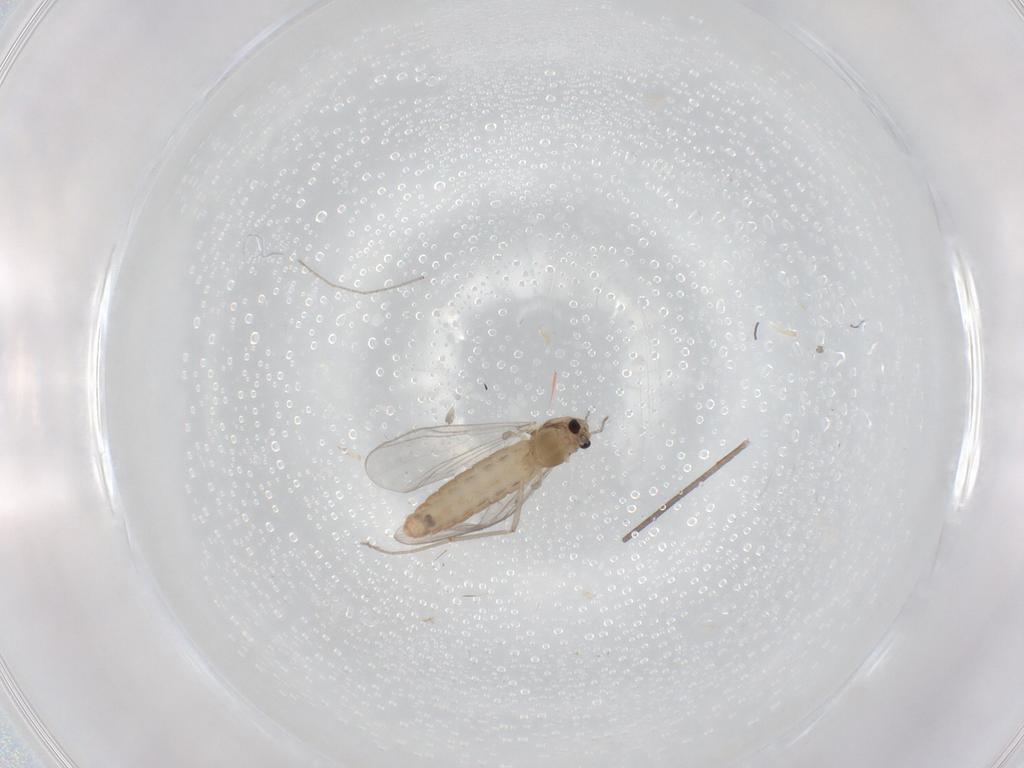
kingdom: Animalia
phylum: Arthropoda
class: Insecta
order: Diptera
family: Chironomidae
